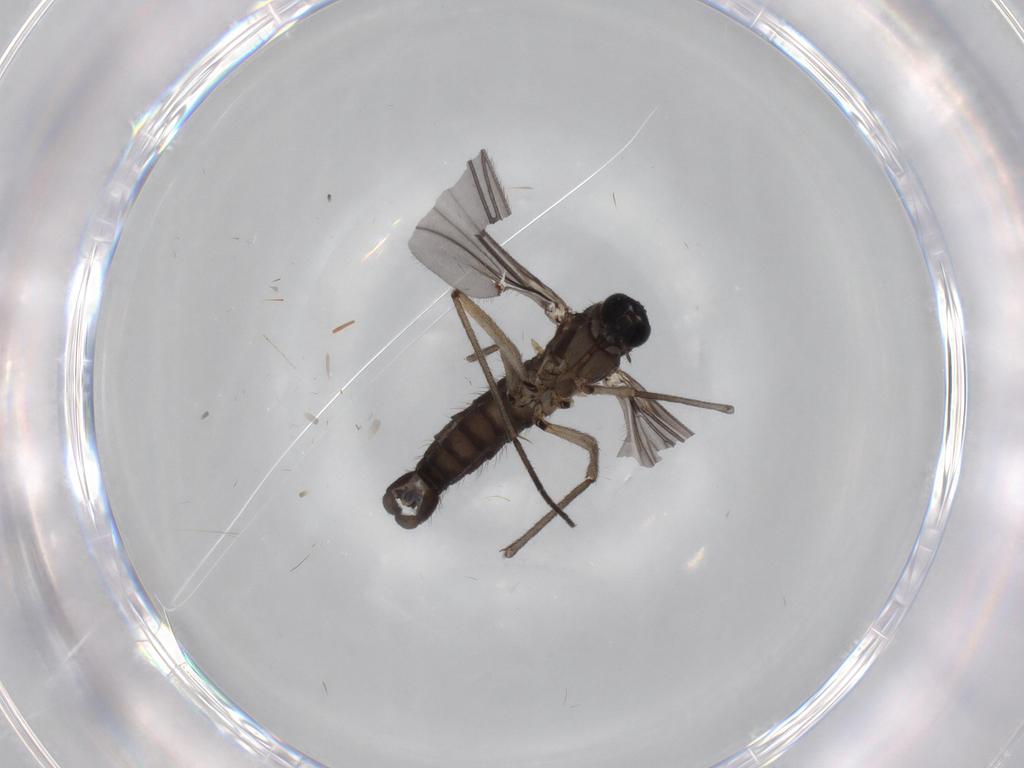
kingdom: Animalia
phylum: Arthropoda
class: Insecta
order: Diptera
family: Sciaridae
